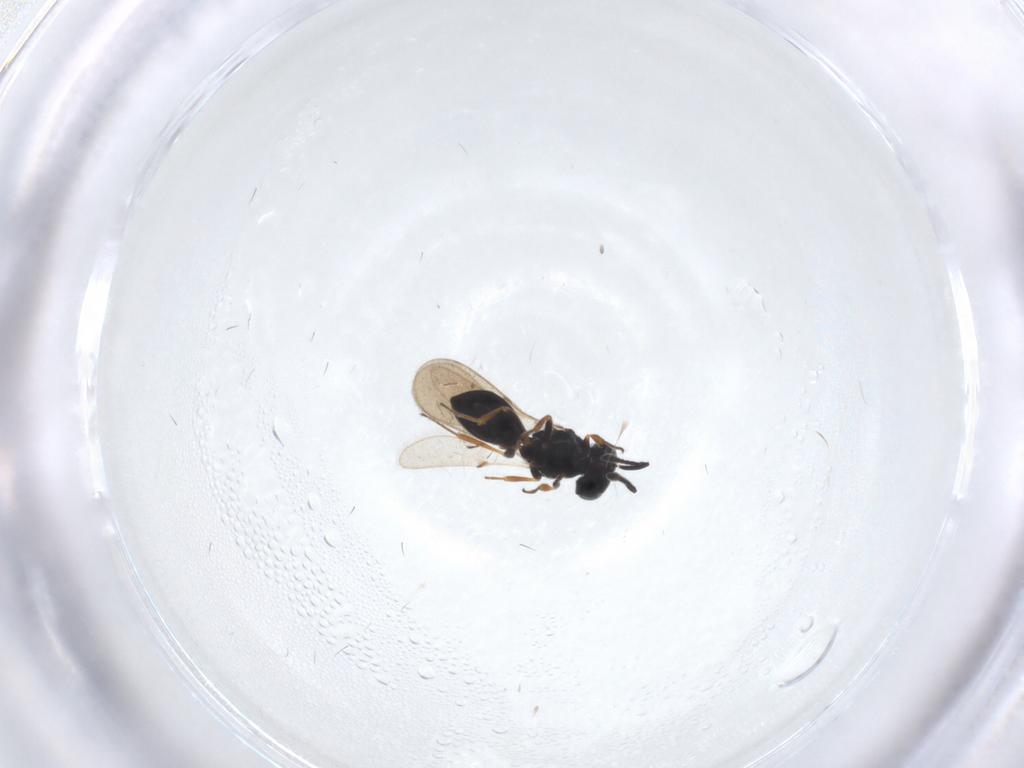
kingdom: Animalia
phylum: Arthropoda
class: Insecta
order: Hymenoptera
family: Scelionidae
